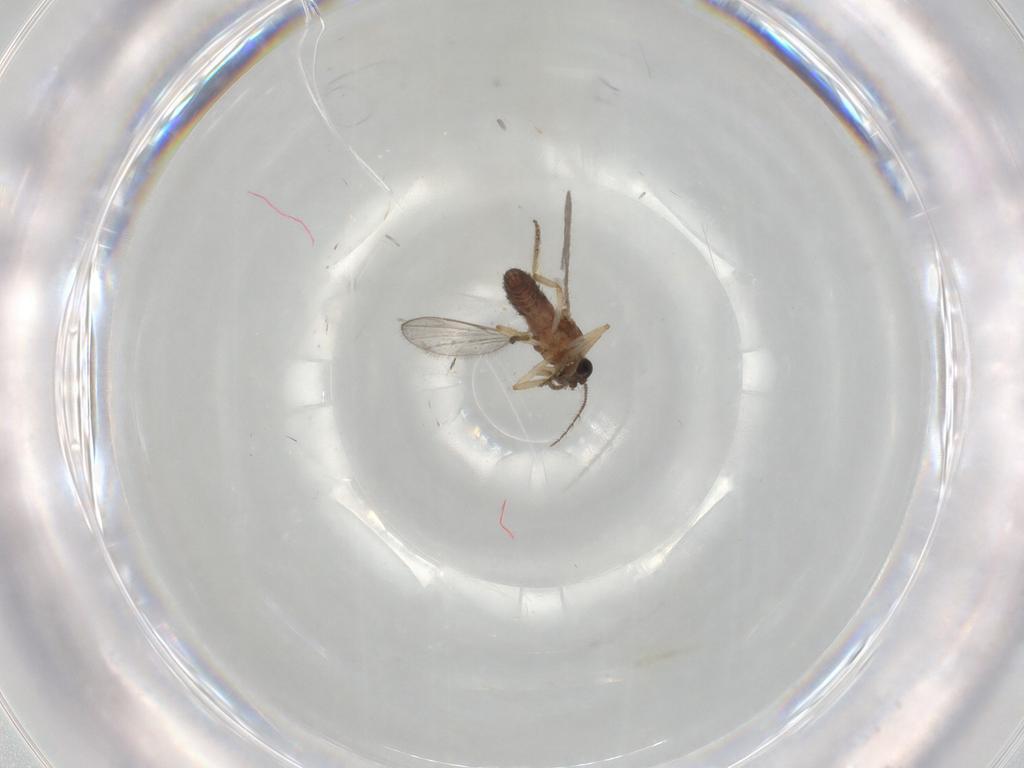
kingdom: Animalia
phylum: Arthropoda
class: Insecta
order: Diptera
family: Ceratopogonidae
